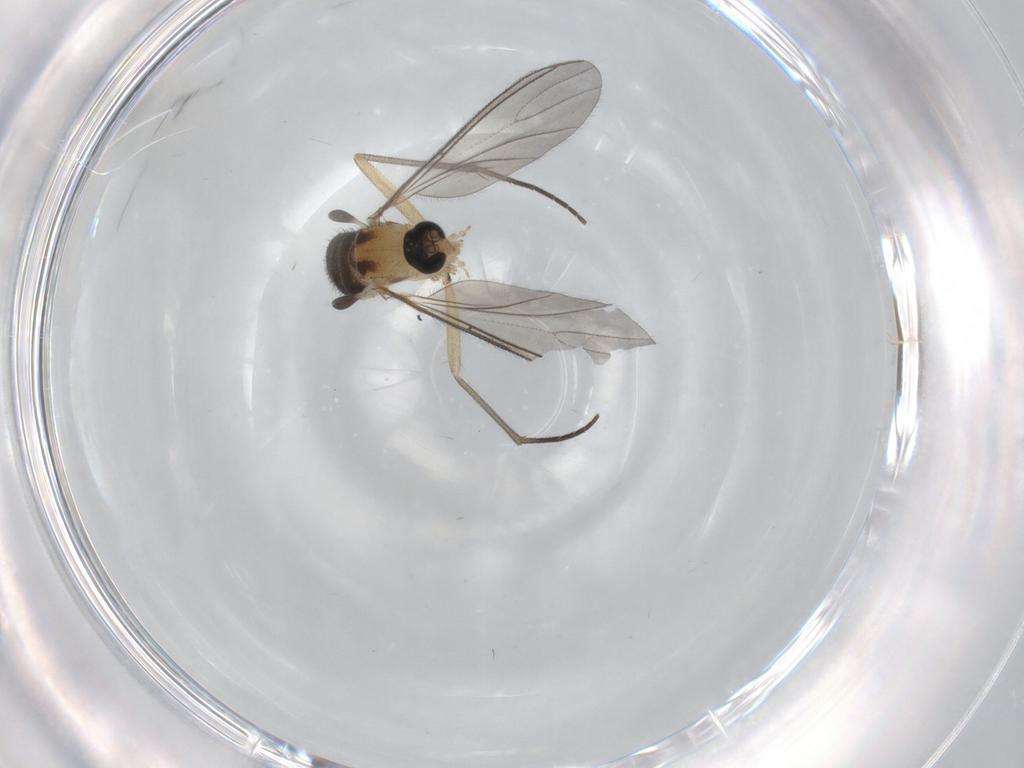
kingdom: Animalia
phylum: Arthropoda
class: Insecta
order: Diptera
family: Sciaridae
